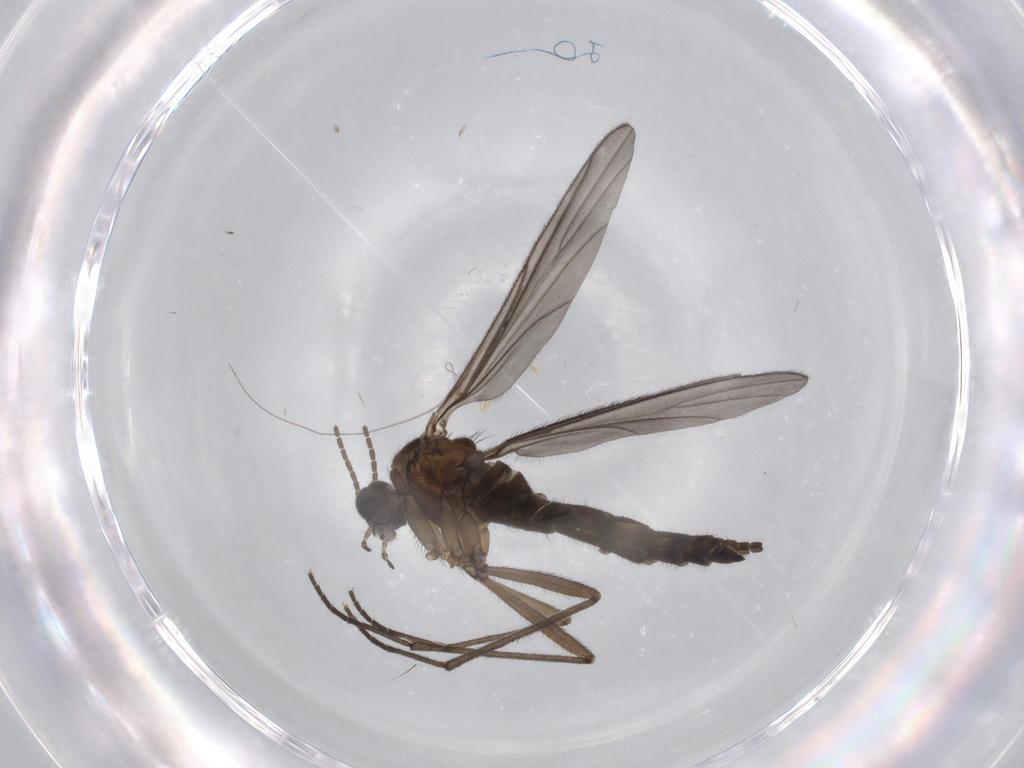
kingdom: Animalia
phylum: Arthropoda
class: Insecta
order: Diptera
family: Sciaridae
